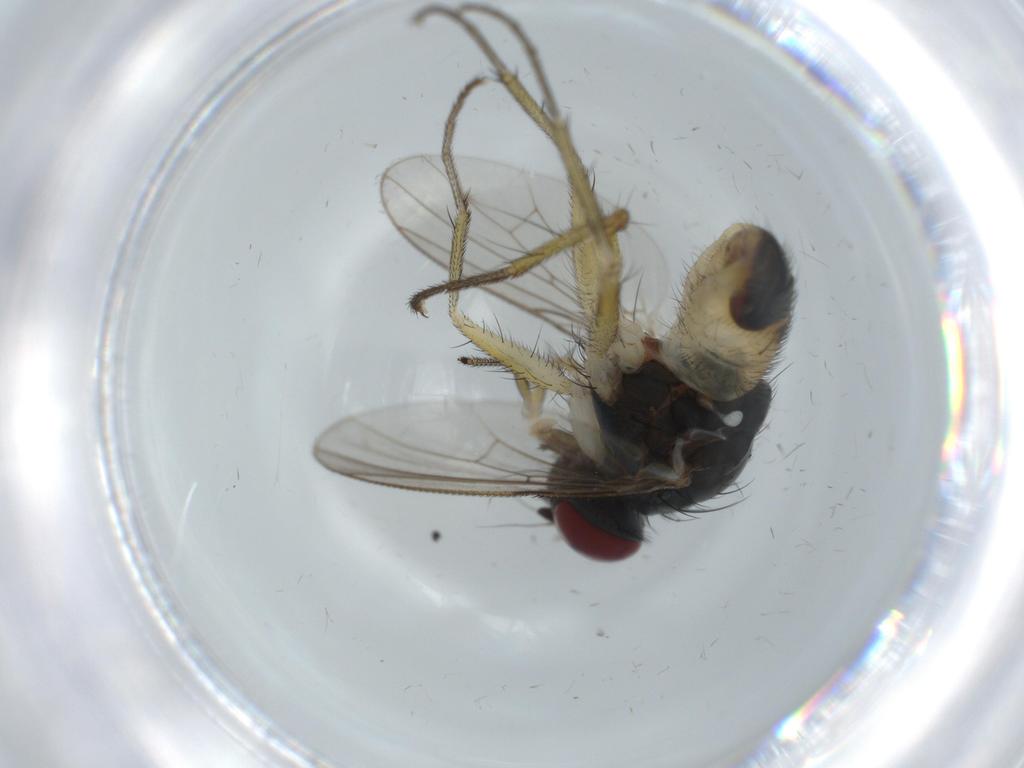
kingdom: Animalia
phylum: Arthropoda
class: Insecta
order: Diptera
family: Muscidae
